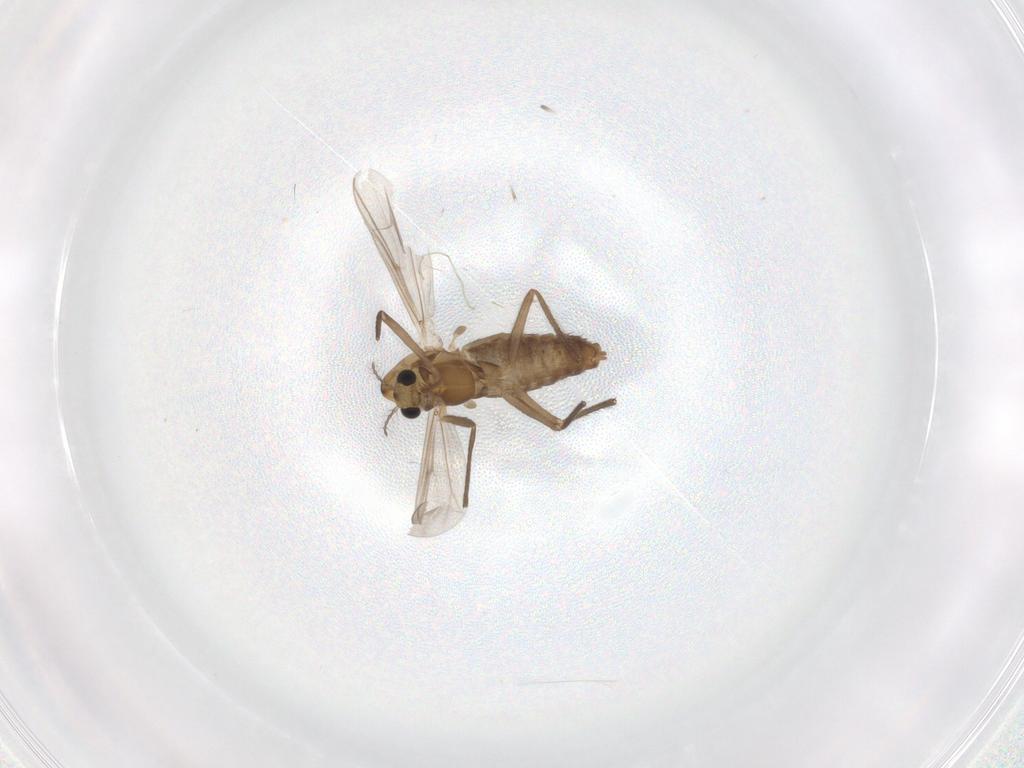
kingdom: Animalia
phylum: Arthropoda
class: Insecta
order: Diptera
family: Chironomidae
